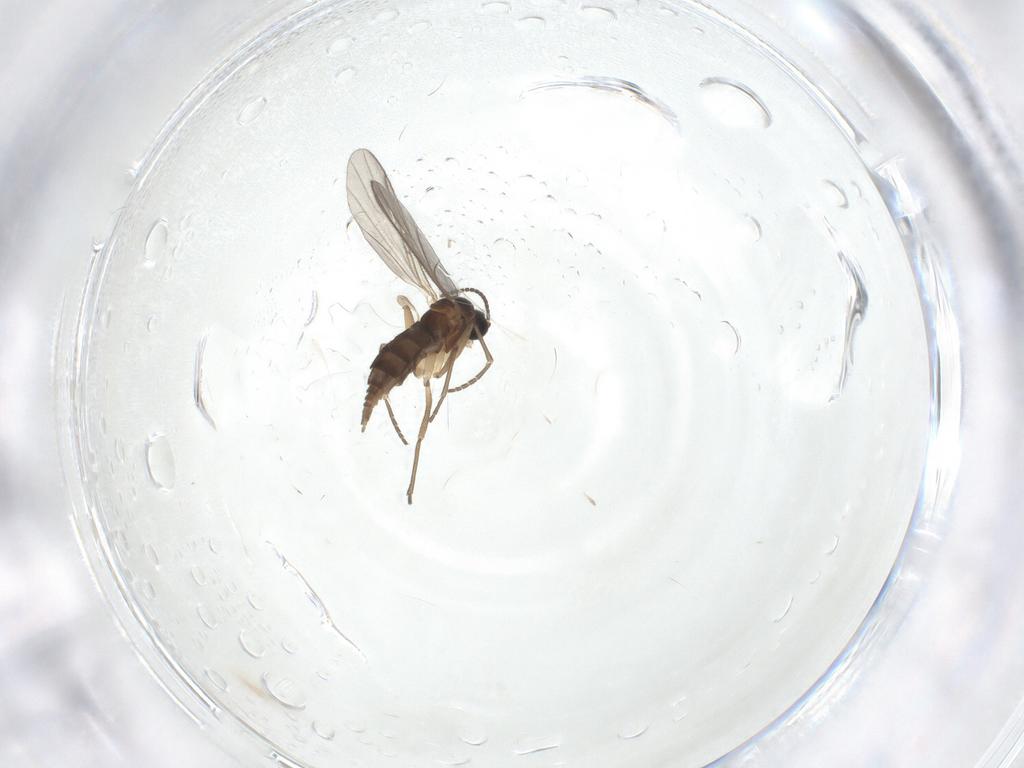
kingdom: Animalia
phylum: Arthropoda
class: Insecta
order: Diptera
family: Sciaridae
